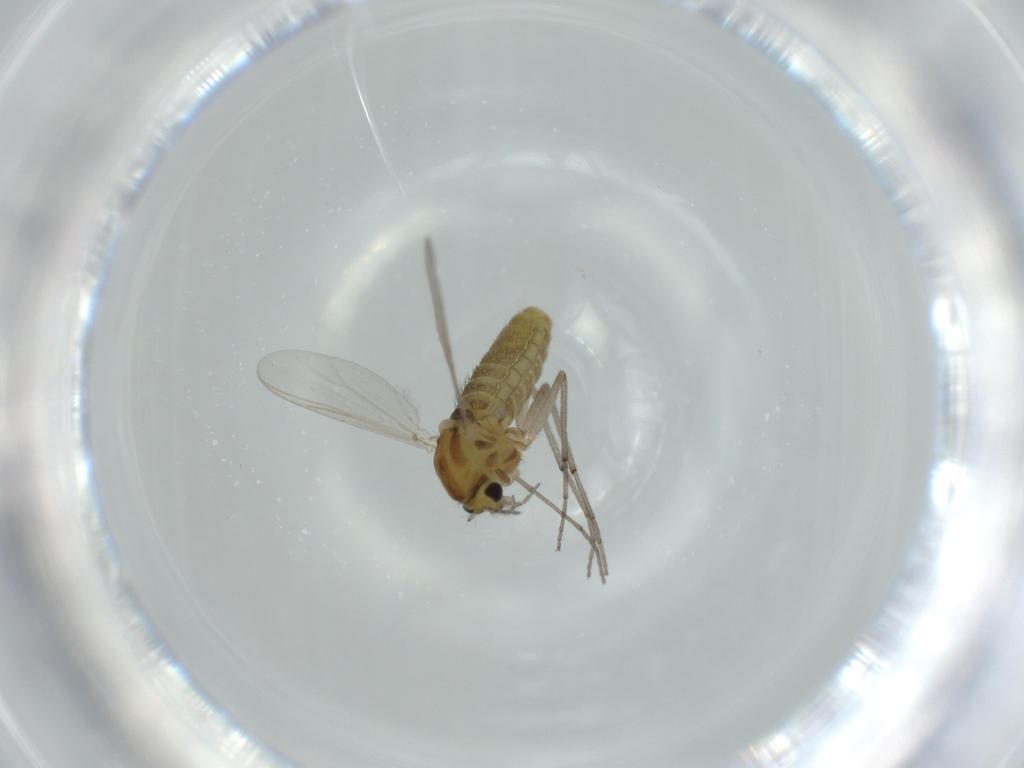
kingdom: Animalia
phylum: Arthropoda
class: Insecta
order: Diptera
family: Chironomidae
